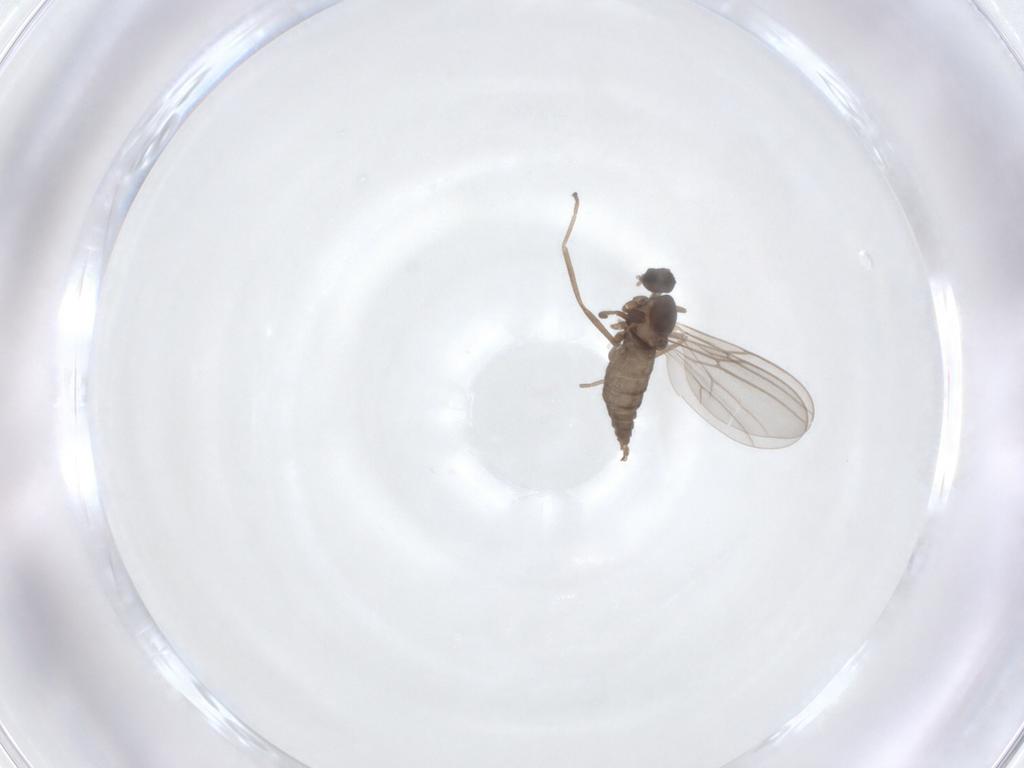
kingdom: Animalia
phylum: Arthropoda
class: Insecta
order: Diptera
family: Cecidomyiidae
